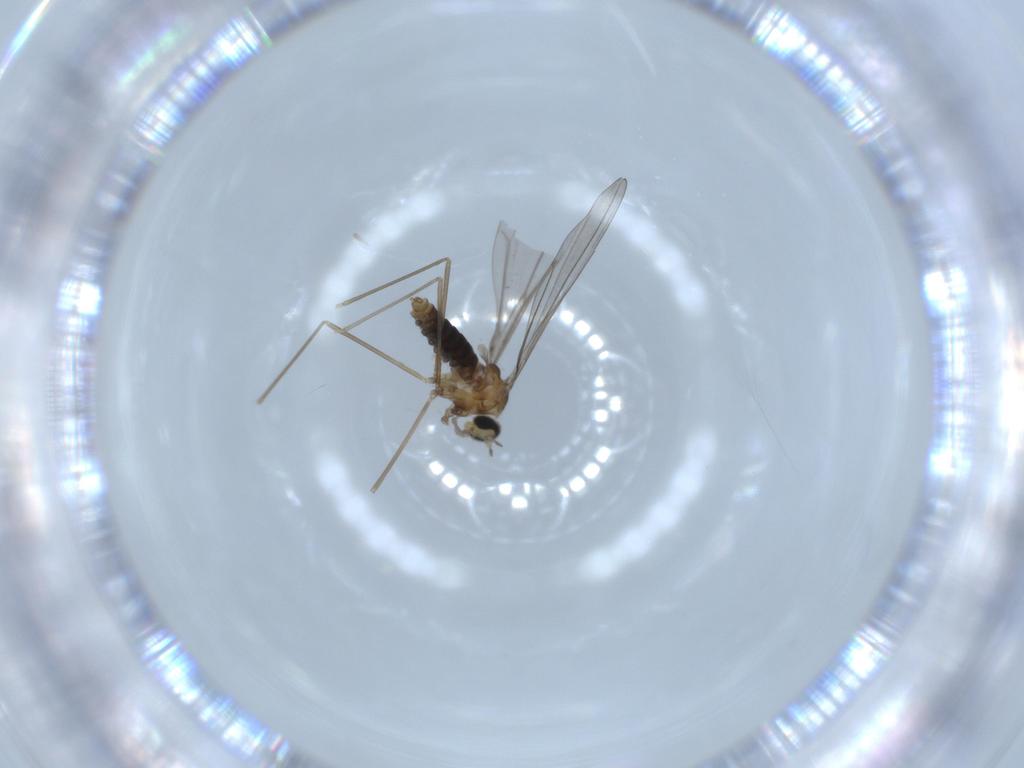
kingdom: Animalia
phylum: Arthropoda
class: Insecta
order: Diptera
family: Cecidomyiidae
